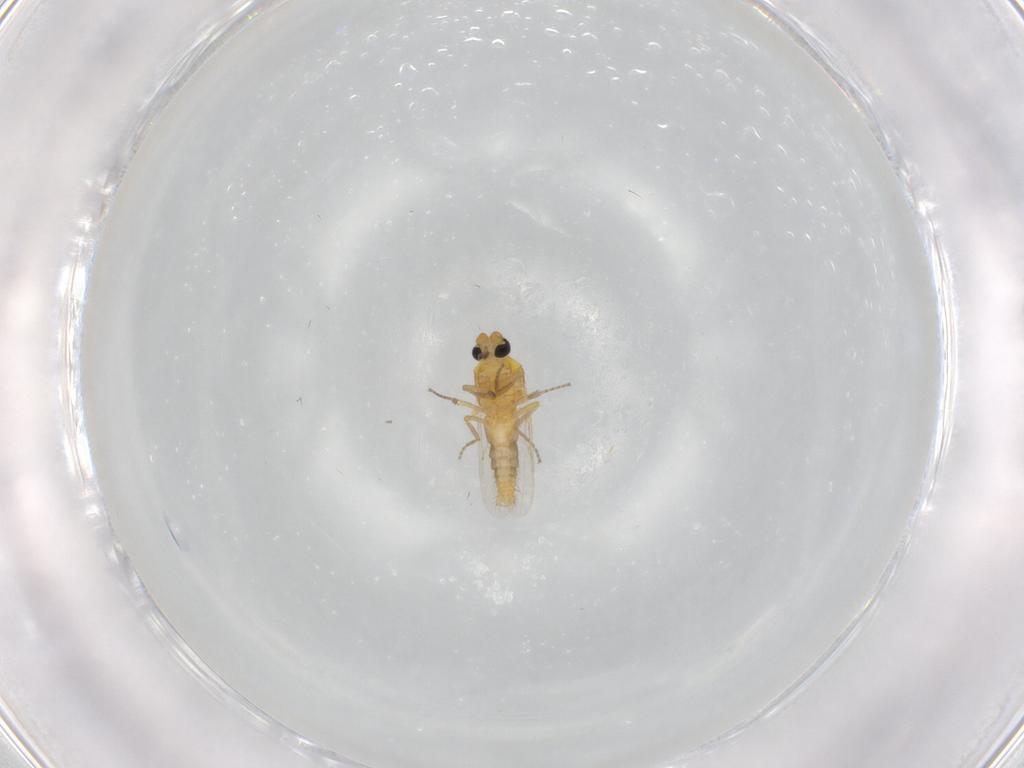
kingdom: Animalia
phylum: Arthropoda
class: Insecta
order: Diptera
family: Ceratopogonidae
